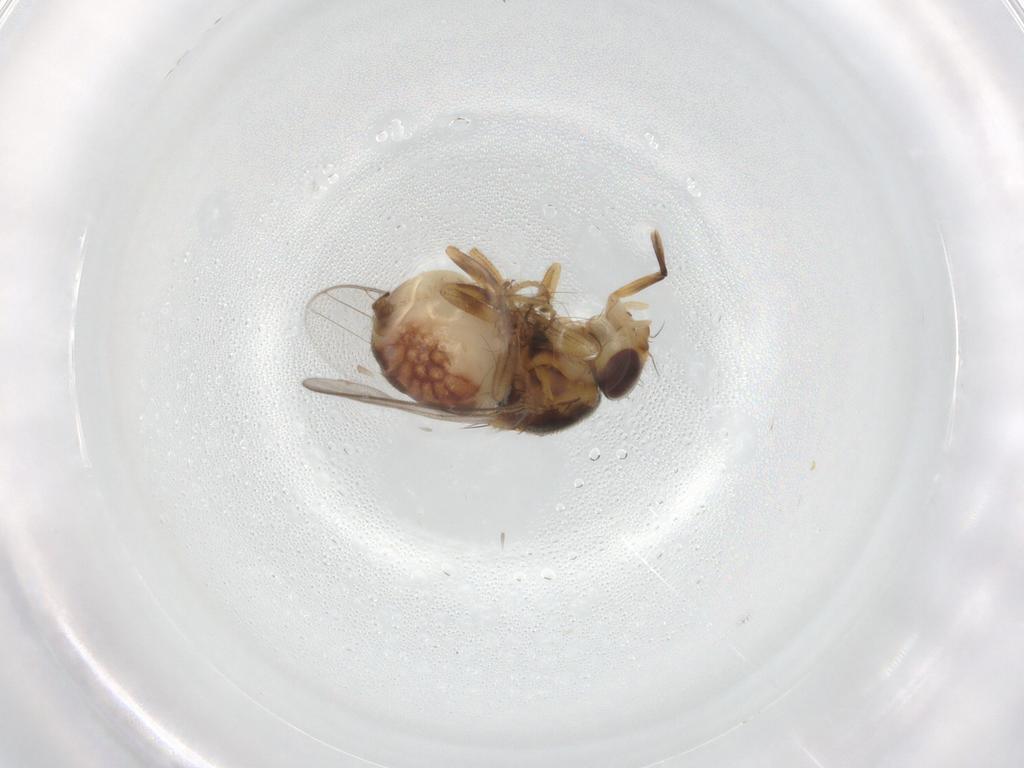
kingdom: Animalia
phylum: Arthropoda
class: Insecta
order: Diptera
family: Chloropidae
